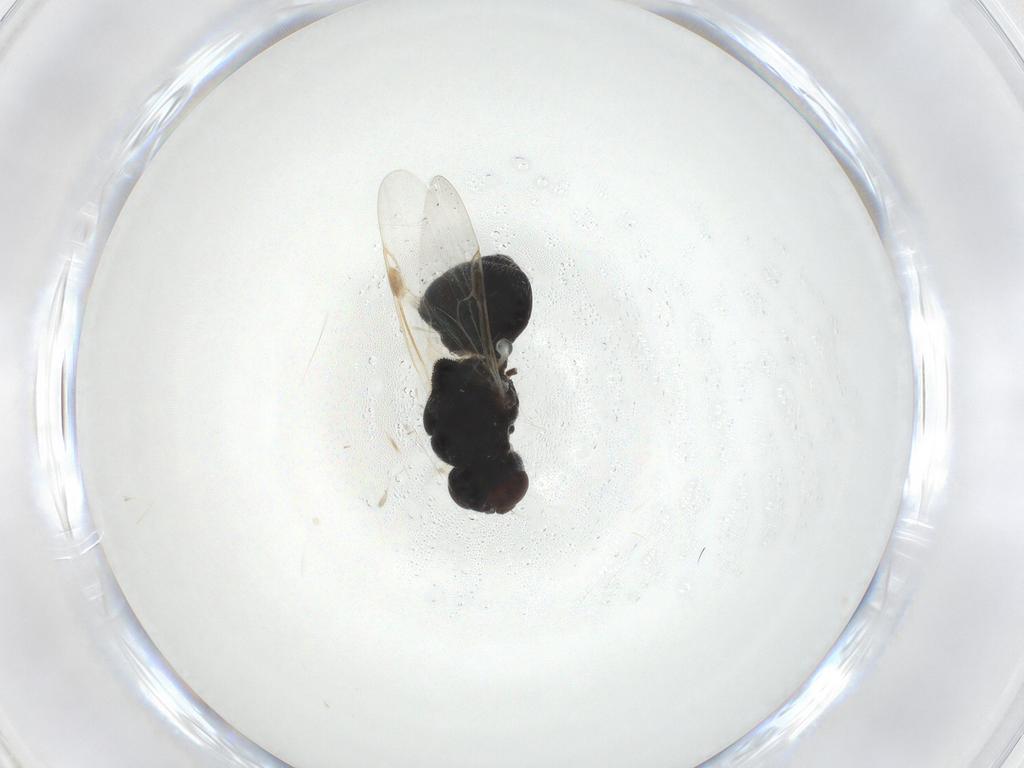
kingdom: Animalia
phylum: Arthropoda
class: Insecta
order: Diptera
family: Stratiomyidae
